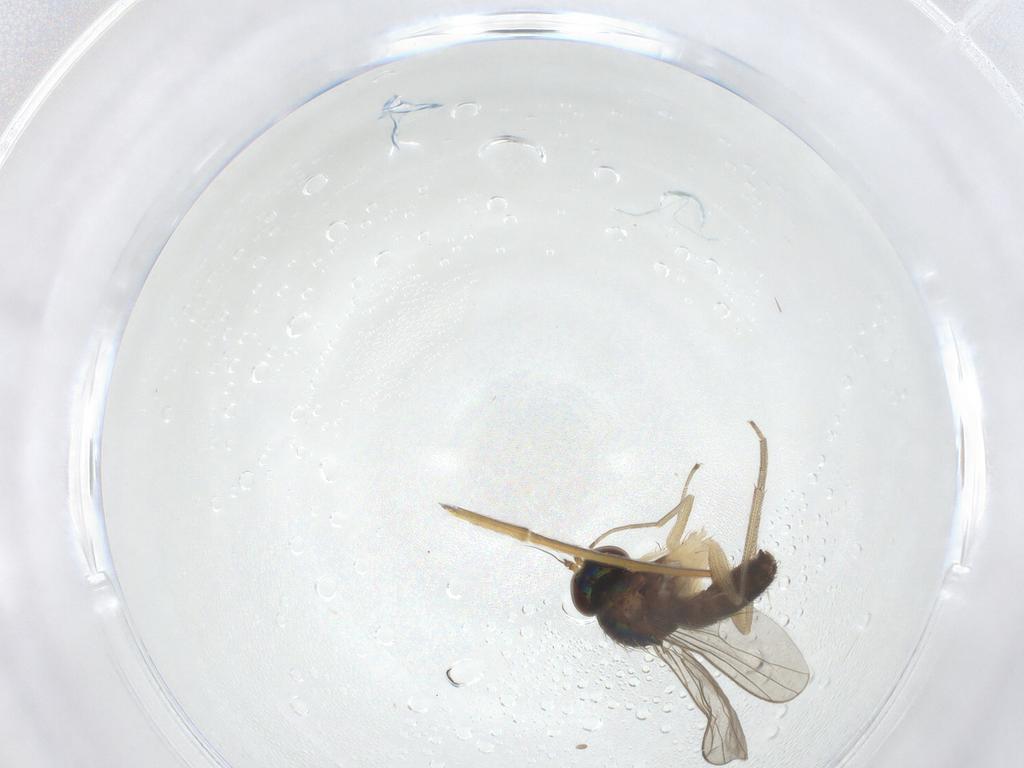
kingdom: Animalia
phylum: Arthropoda
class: Insecta
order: Diptera
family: Dolichopodidae
